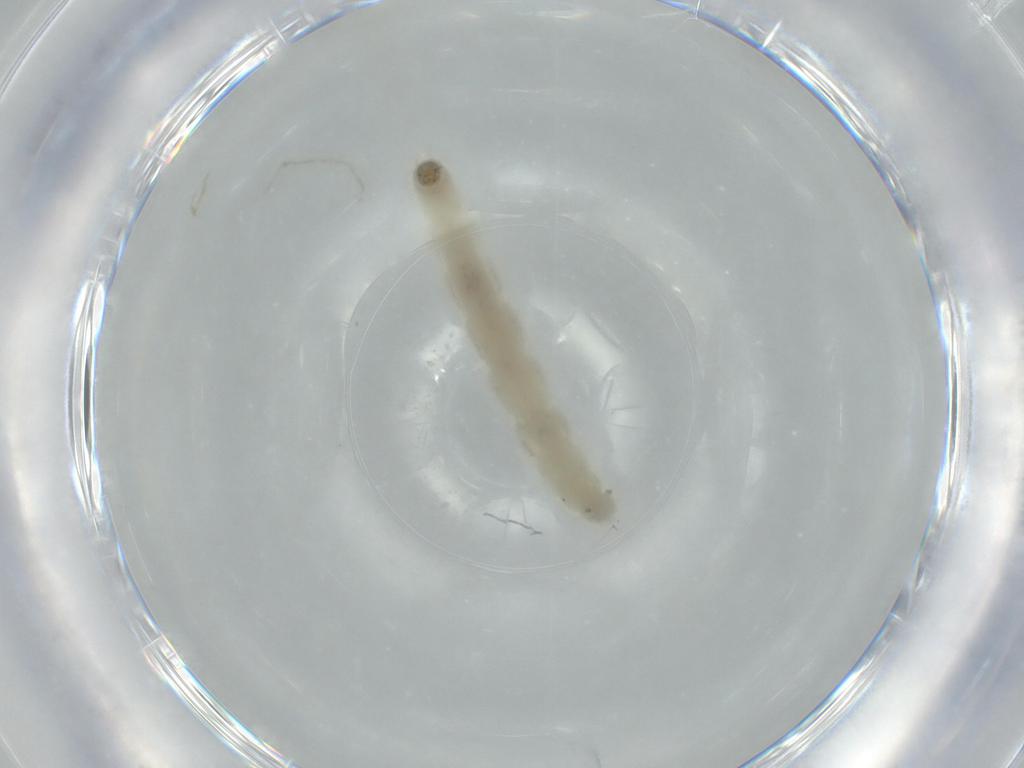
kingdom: Animalia
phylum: Arthropoda
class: Insecta
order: Diptera
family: Chironomidae
